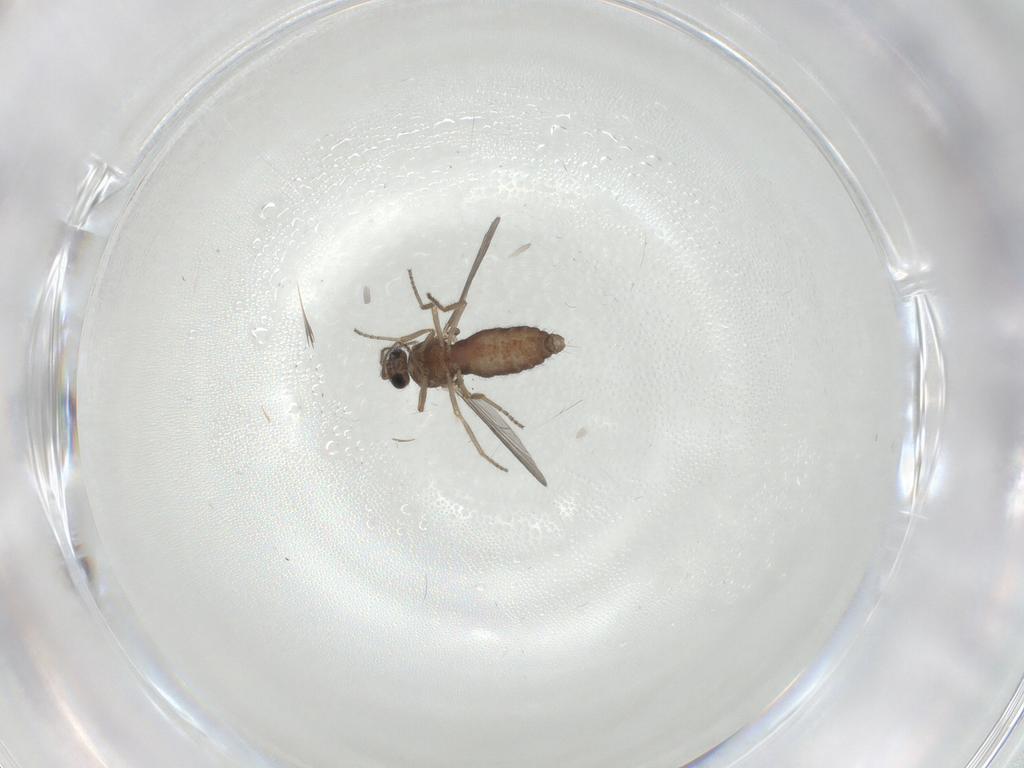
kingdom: Animalia
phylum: Arthropoda
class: Insecta
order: Diptera
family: Ceratopogonidae
